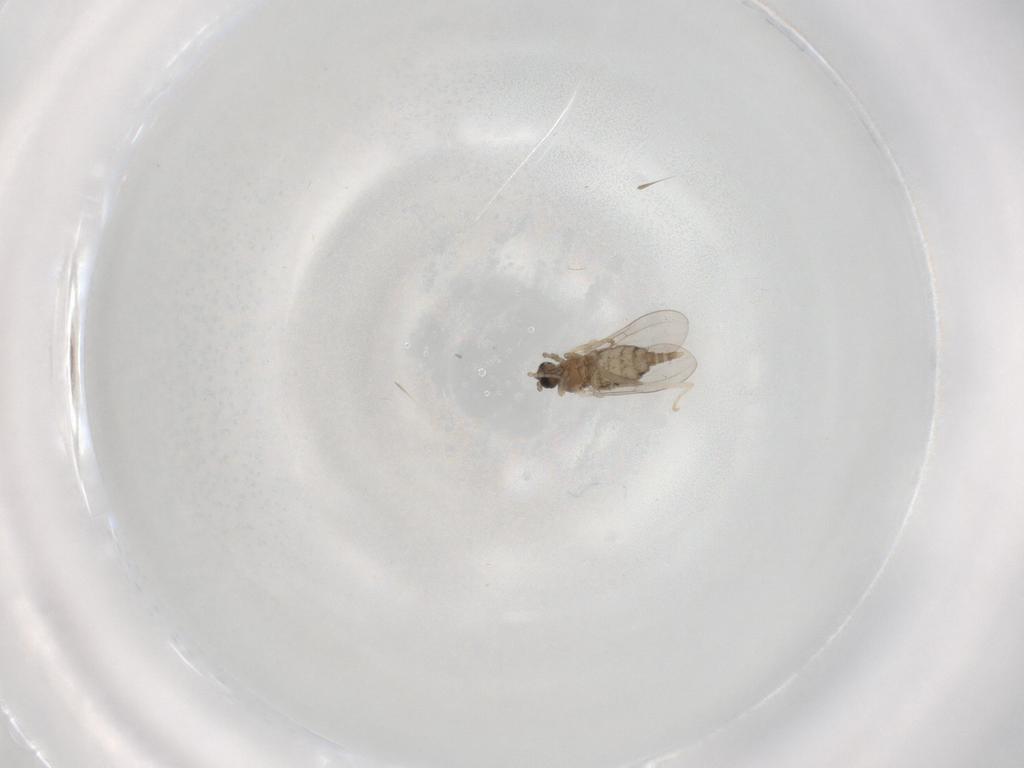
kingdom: Animalia
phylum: Arthropoda
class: Insecta
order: Diptera
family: Cecidomyiidae
